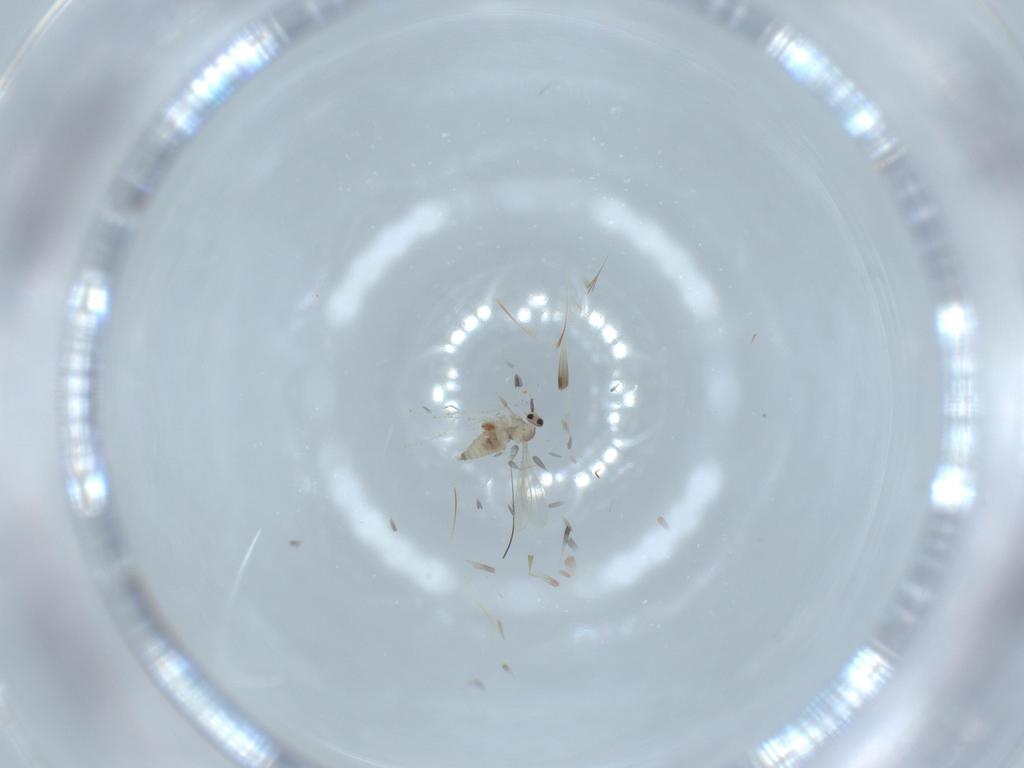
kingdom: Animalia
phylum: Arthropoda
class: Insecta
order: Diptera
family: Cecidomyiidae
